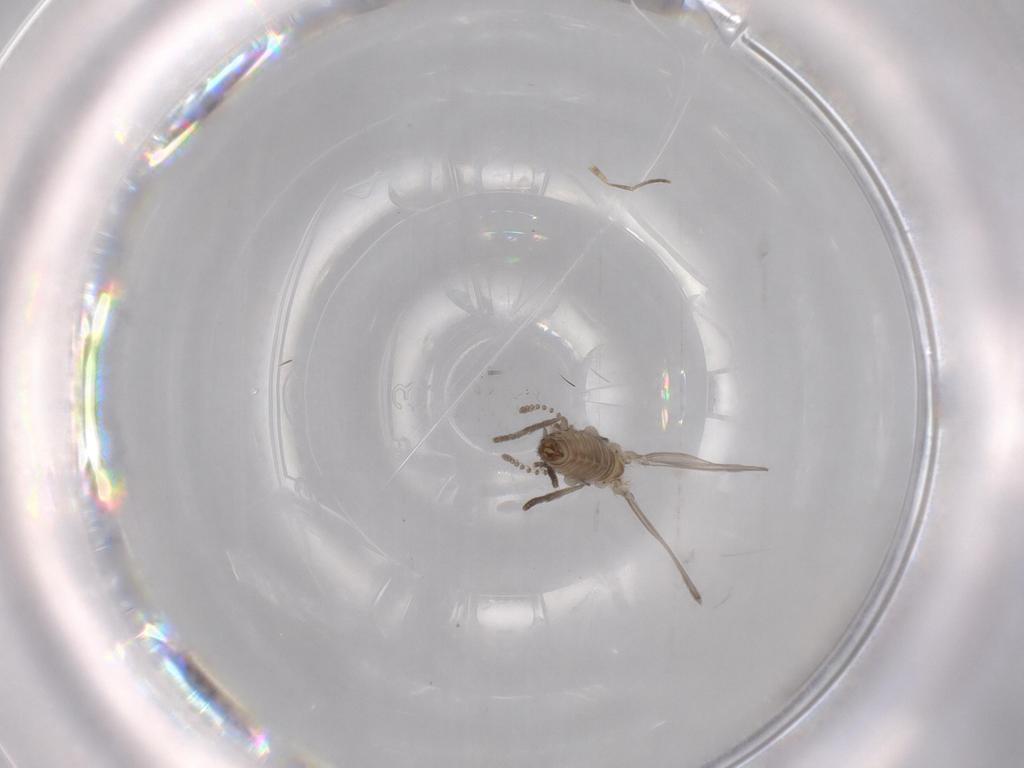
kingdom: Animalia
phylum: Arthropoda
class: Insecta
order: Diptera
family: Psychodidae
